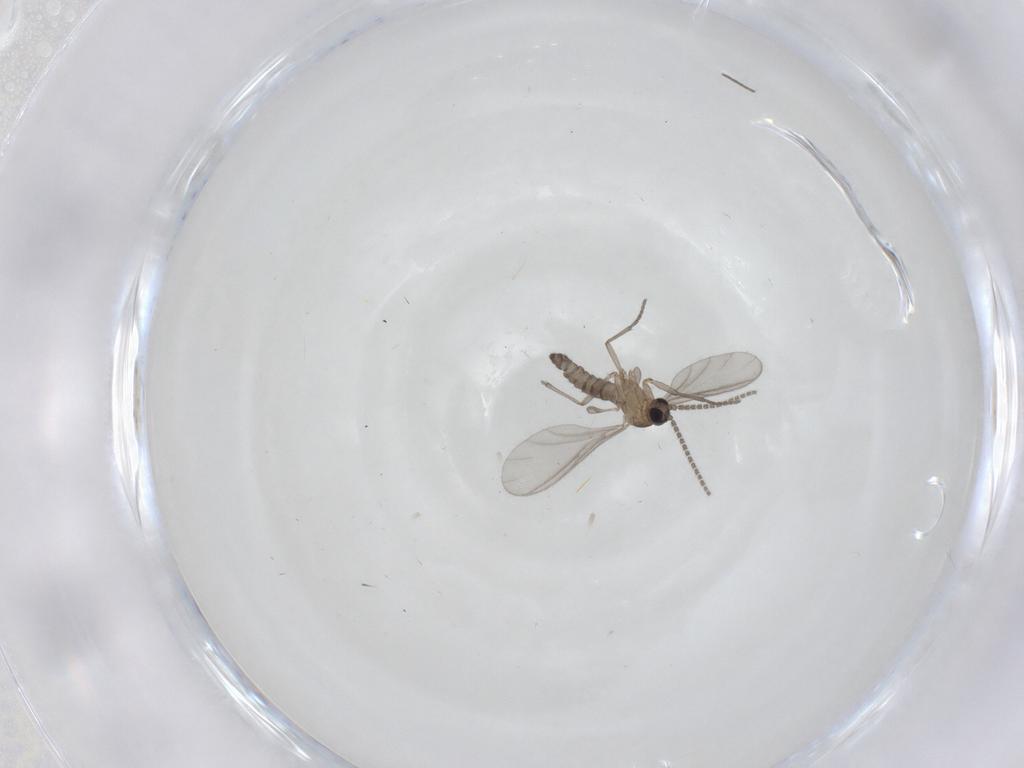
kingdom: Animalia
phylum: Arthropoda
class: Insecta
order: Diptera
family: Sciaridae
